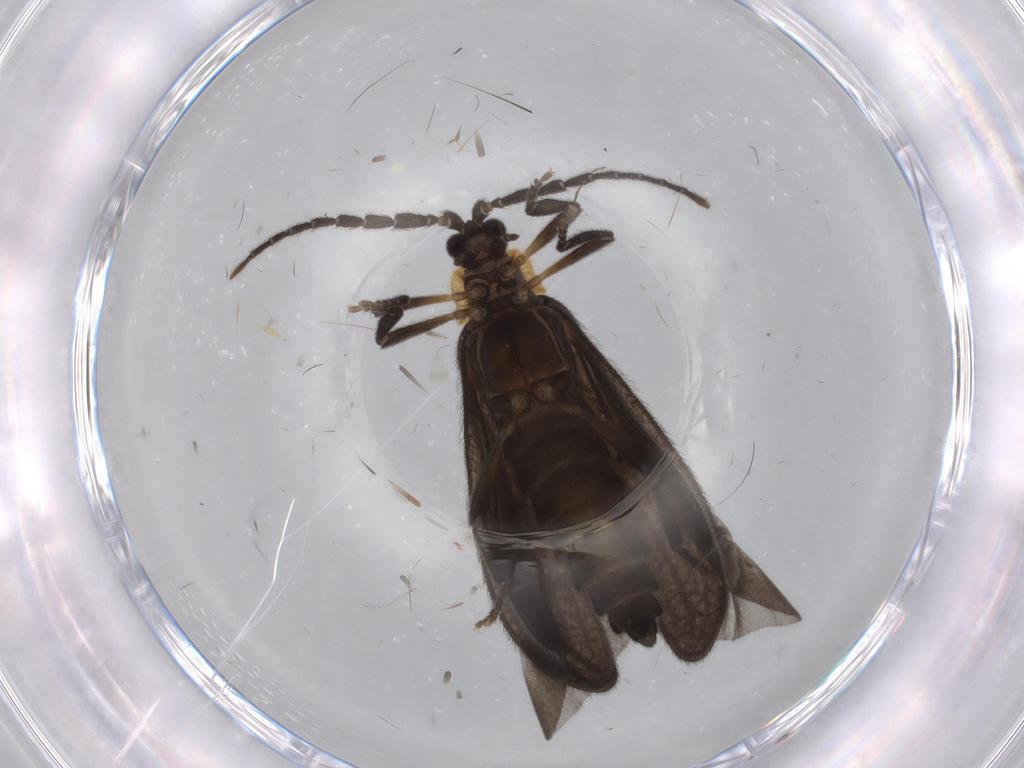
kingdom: Animalia
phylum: Arthropoda
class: Insecta
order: Coleoptera
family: Lycidae
